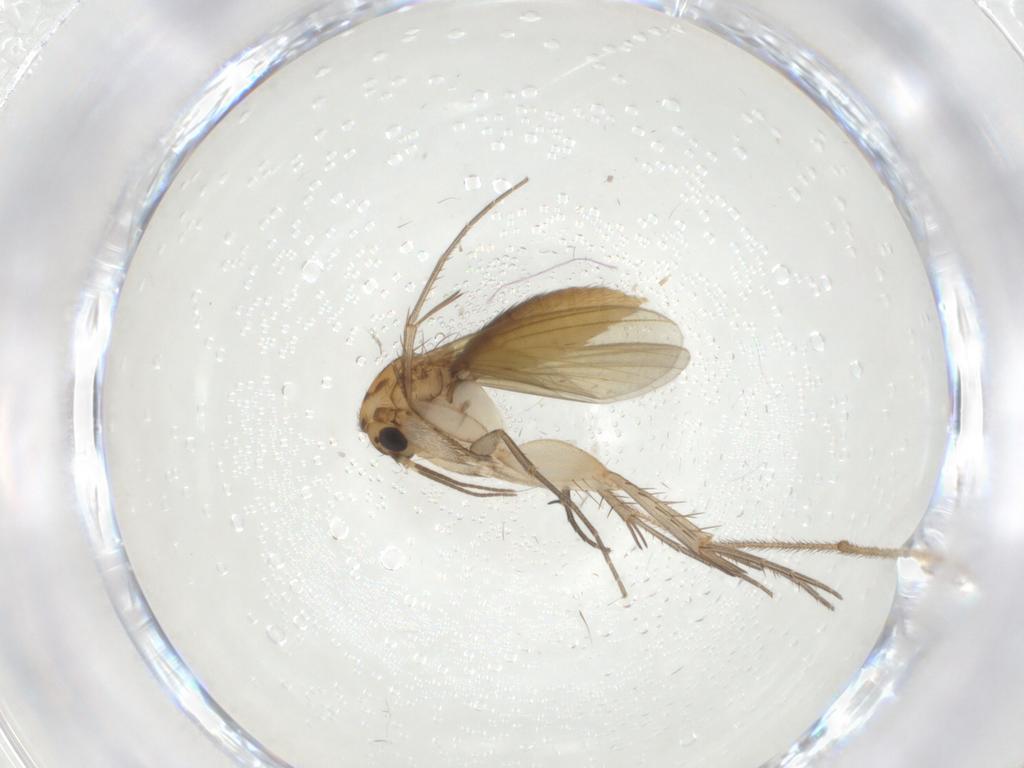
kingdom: Animalia
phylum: Arthropoda
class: Insecta
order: Diptera
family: Mycetophilidae
